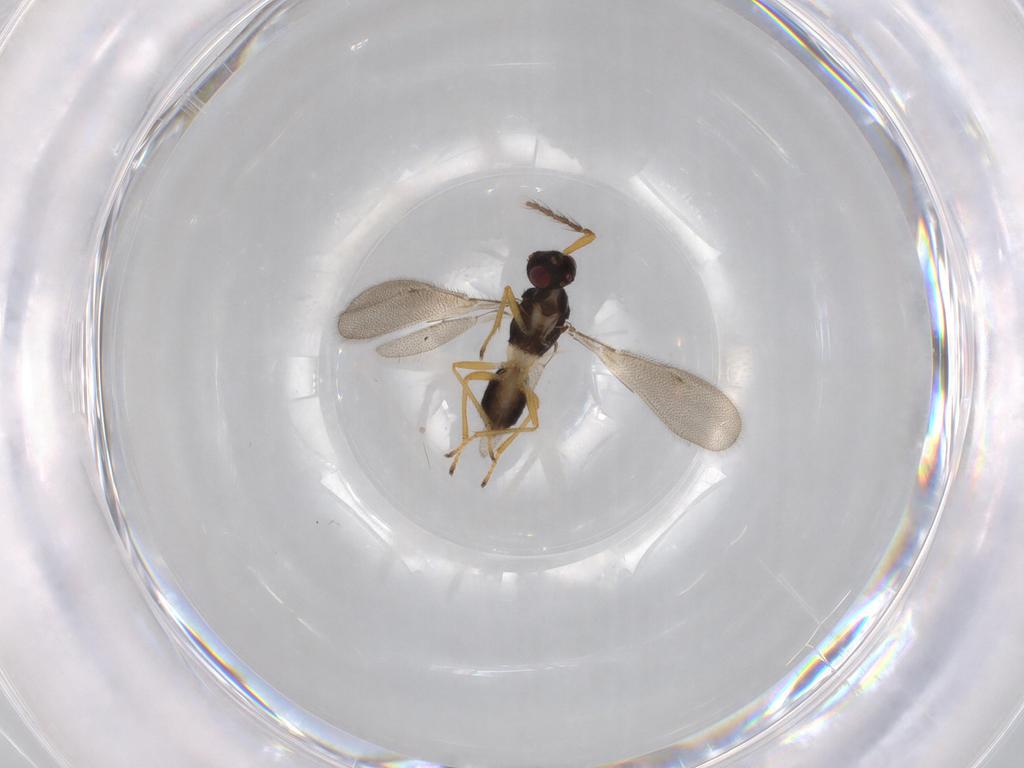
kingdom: Animalia
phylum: Arthropoda
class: Insecta
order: Hymenoptera
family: Eulophidae
